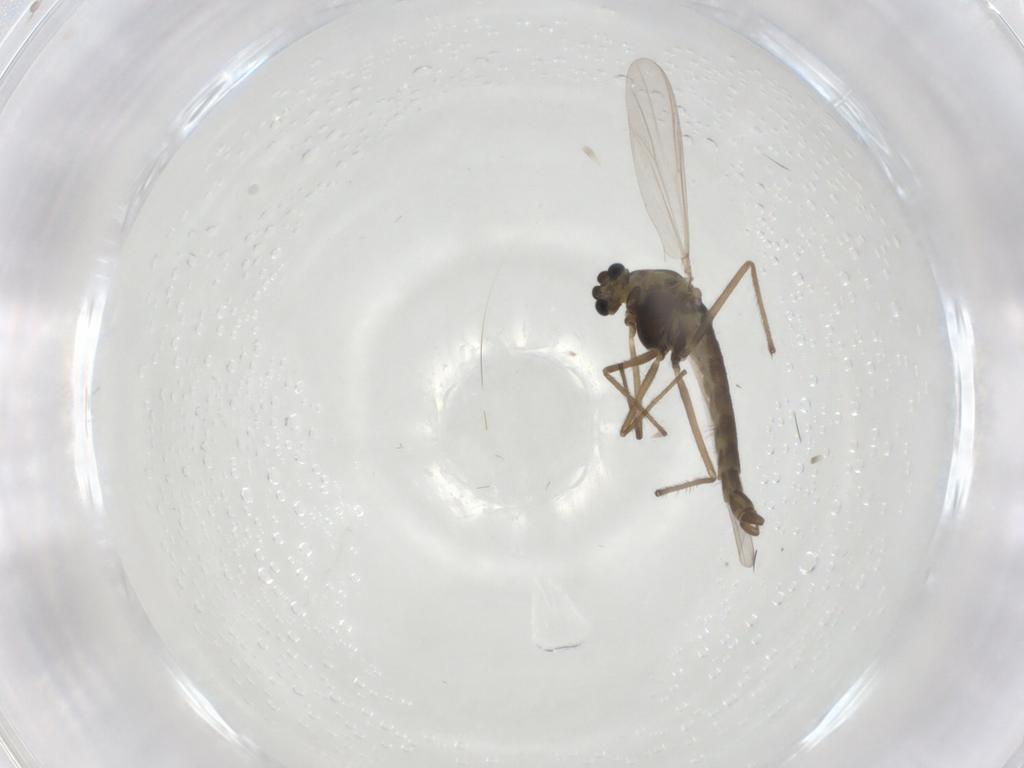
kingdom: Animalia
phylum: Arthropoda
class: Insecta
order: Diptera
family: Chironomidae
